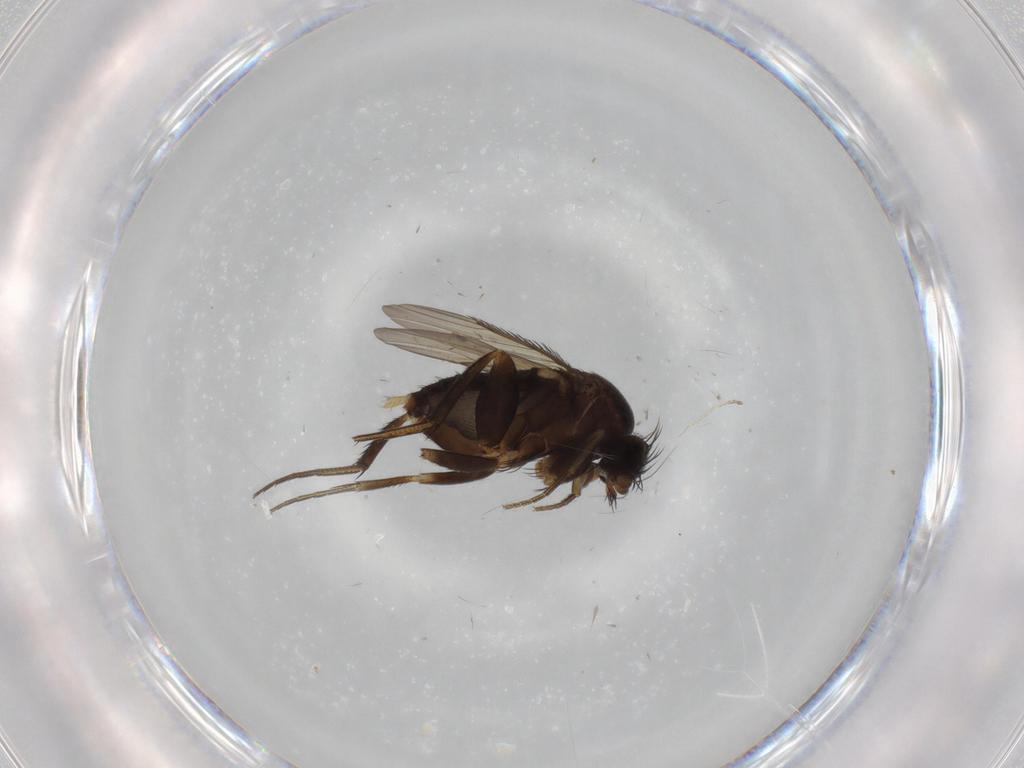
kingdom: Animalia
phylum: Arthropoda
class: Insecta
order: Diptera
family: Phoridae
